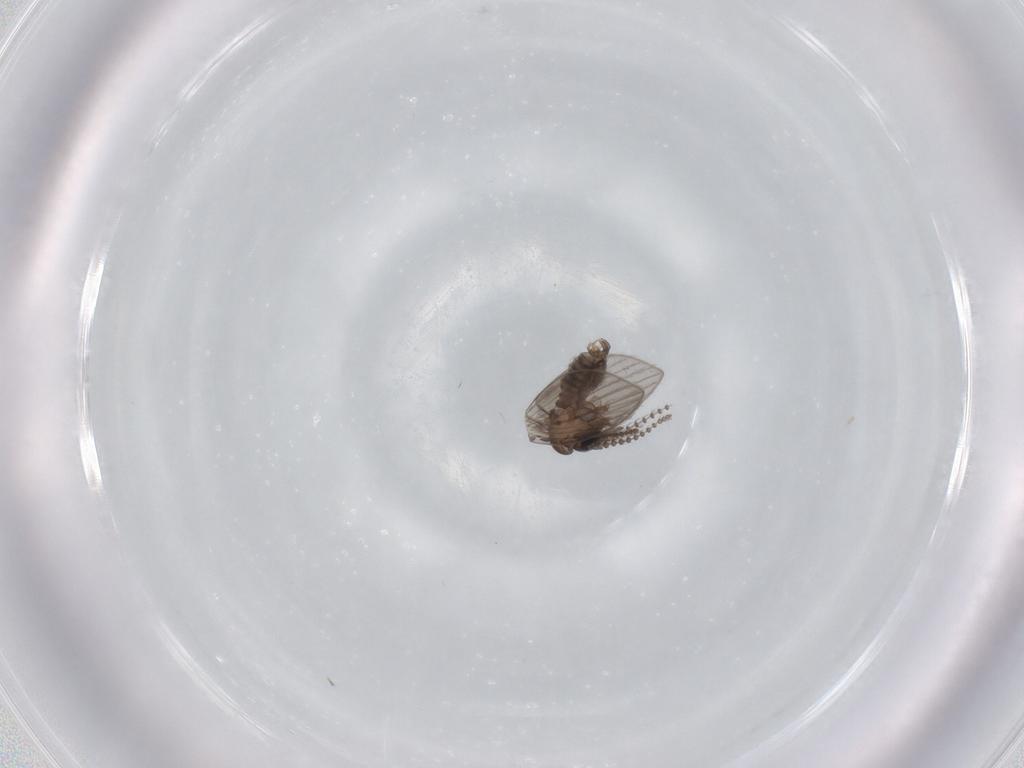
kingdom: Animalia
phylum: Arthropoda
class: Insecta
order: Diptera
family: Psychodidae
